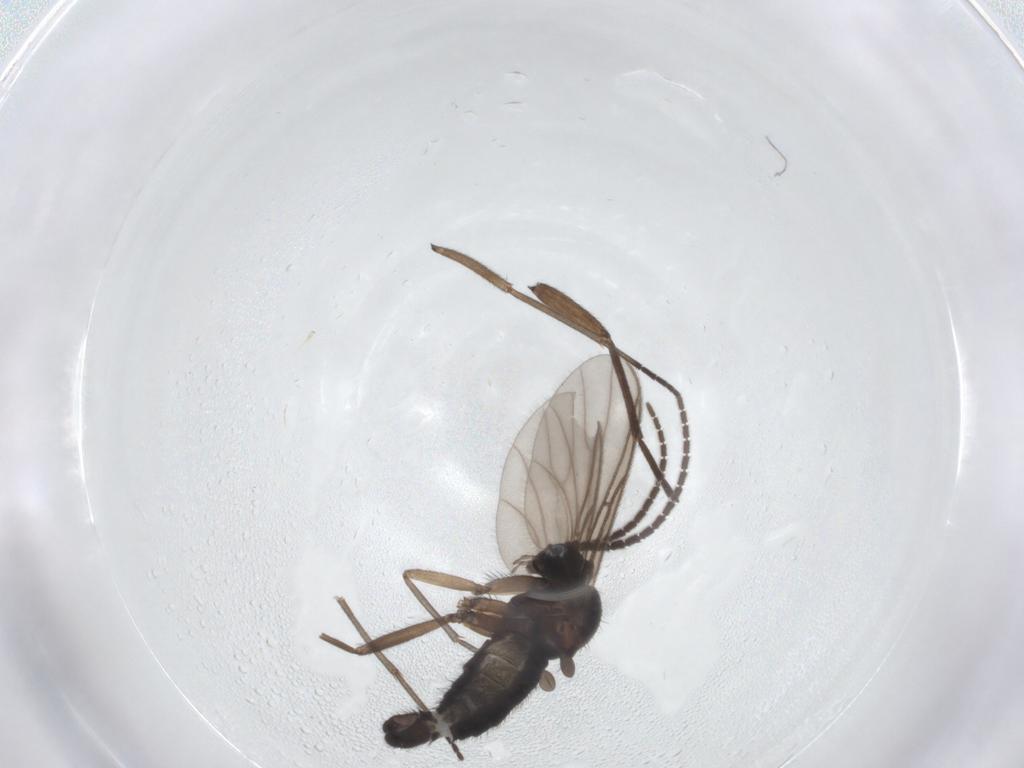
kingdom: Animalia
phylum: Arthropoda
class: Insecta
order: Diptera
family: Sciaridae
